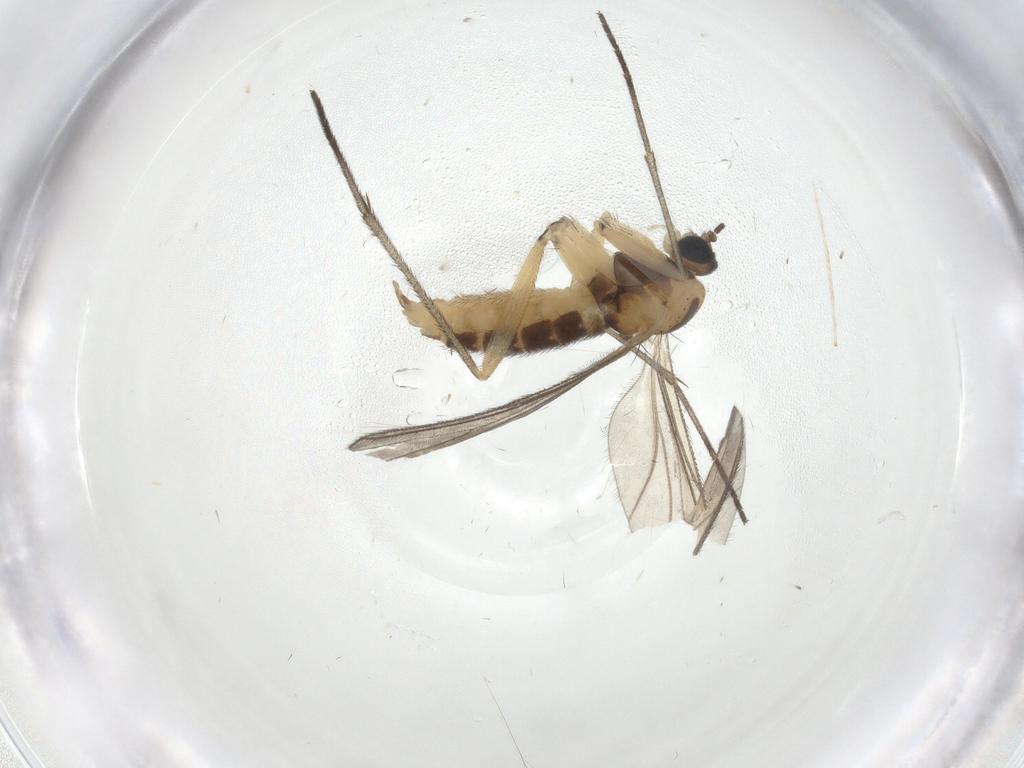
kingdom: Animalia
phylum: Arthropoda
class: Insecta
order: Diptera
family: Sciaridae
